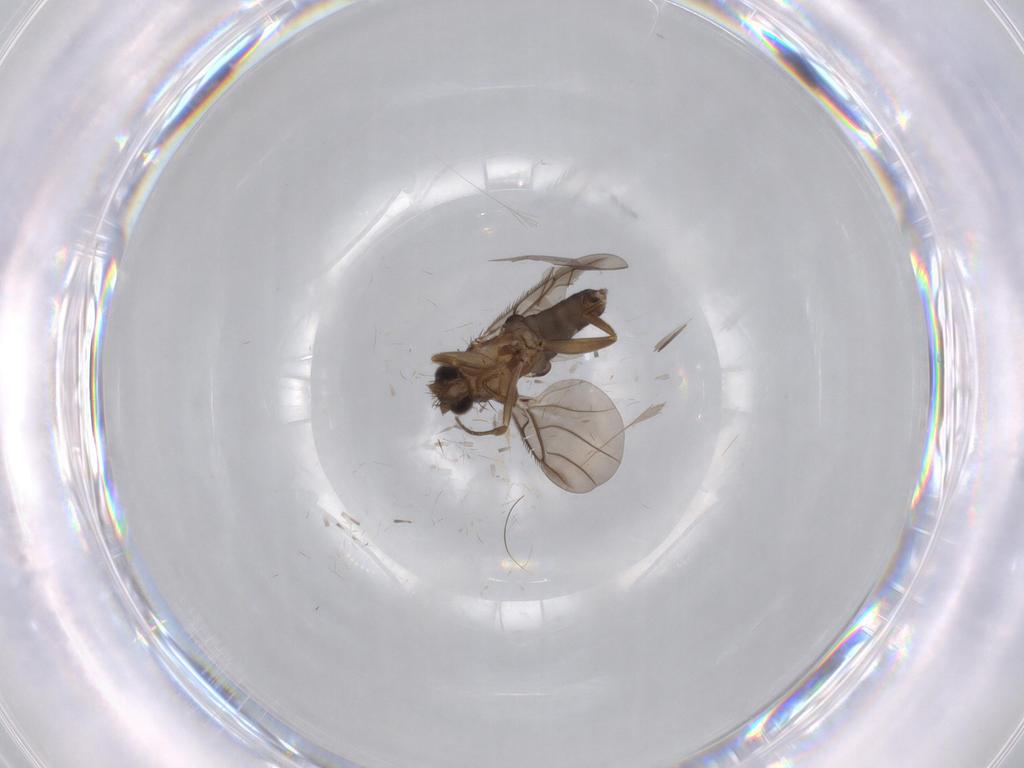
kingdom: Animalia
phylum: Arthropoda
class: Insecta
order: Diptera
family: Phoridae
